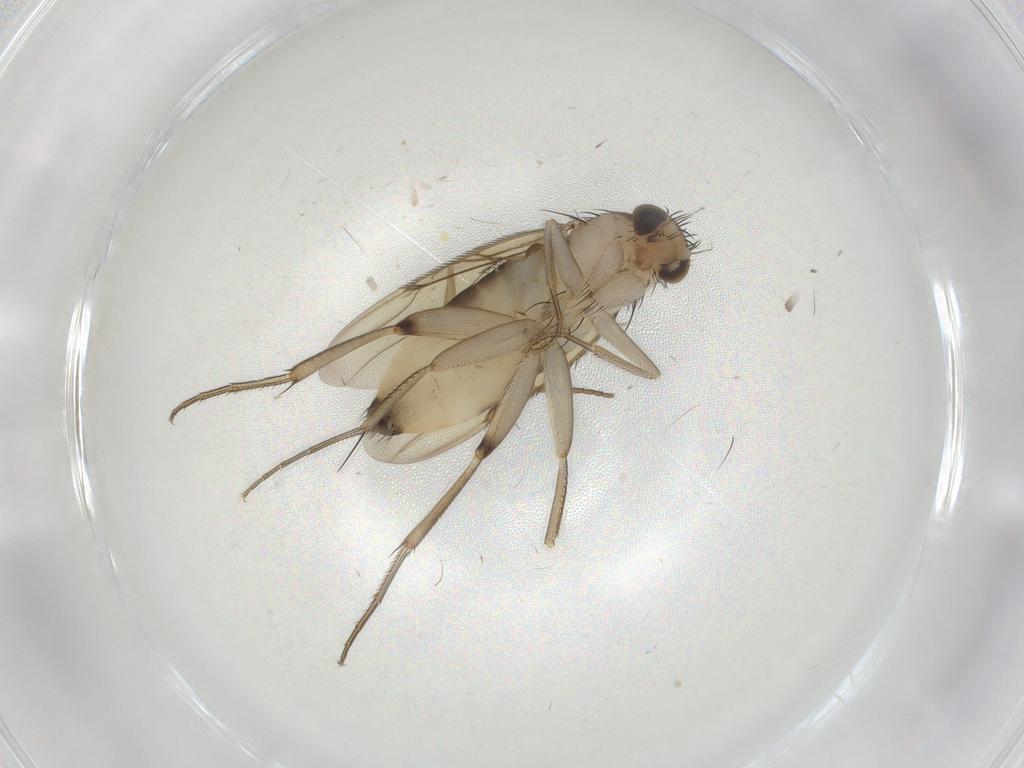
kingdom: Animalia
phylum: Arthropoda
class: Insecta
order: Diptera
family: Phoridae
